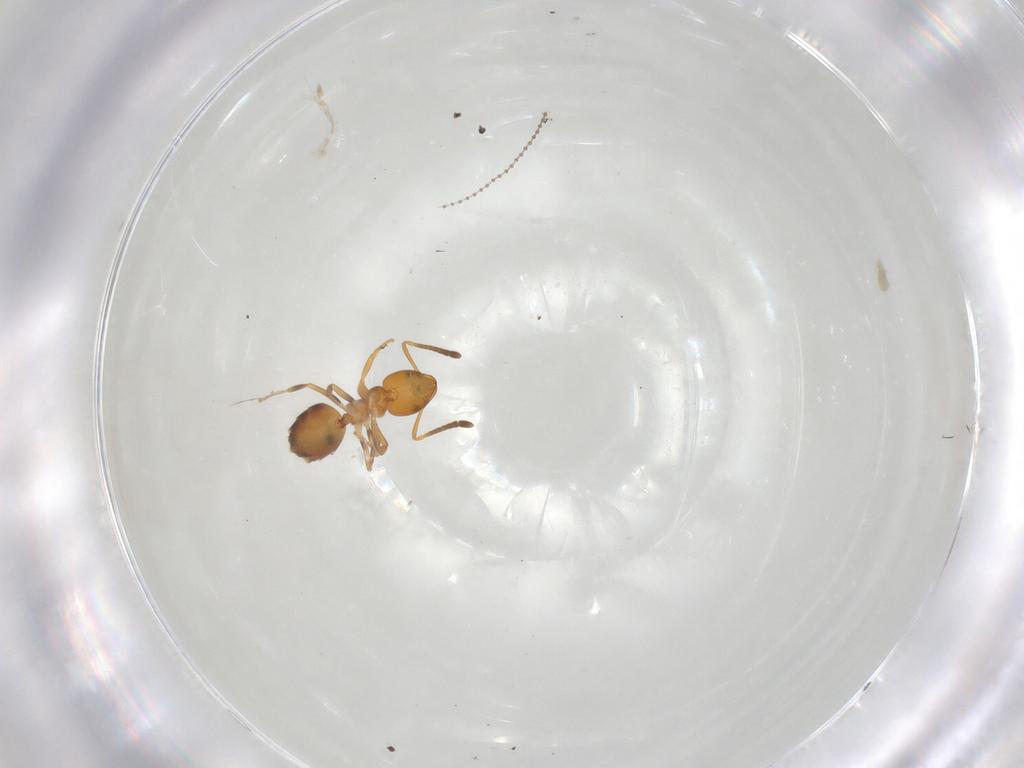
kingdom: Animalia
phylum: Arthropoda
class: Insecta
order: Hymenoptera
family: Formicidae
